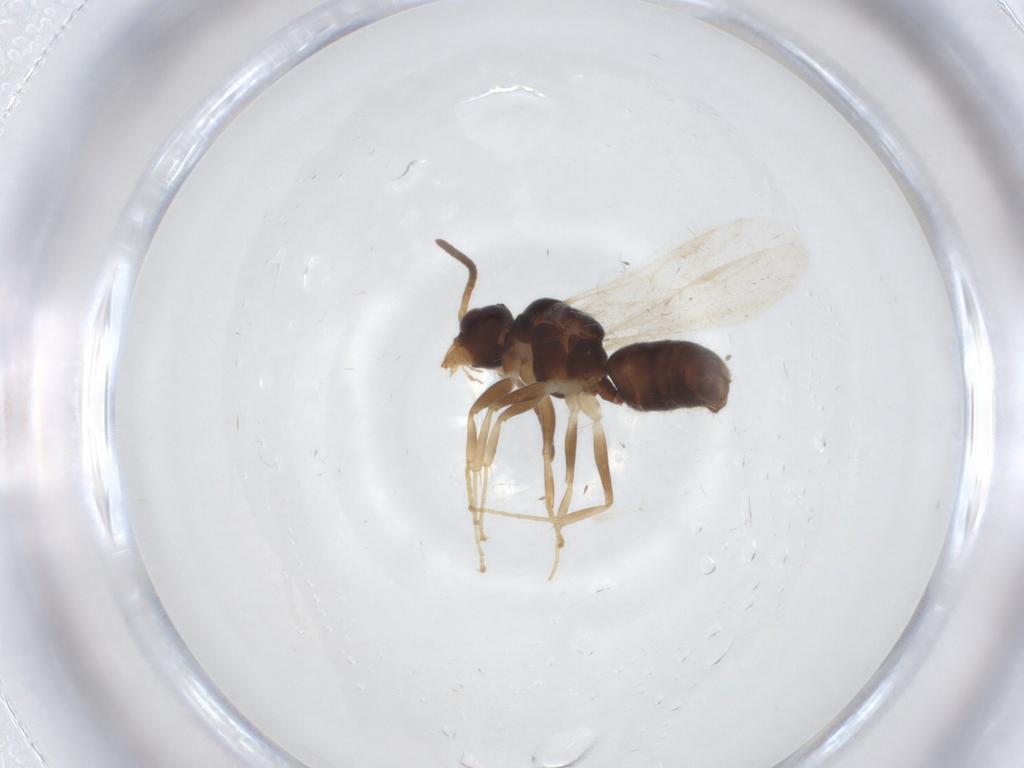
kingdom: Animalia
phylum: Arthropoda
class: Insecta
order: Hymenoptera
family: Formicidae
